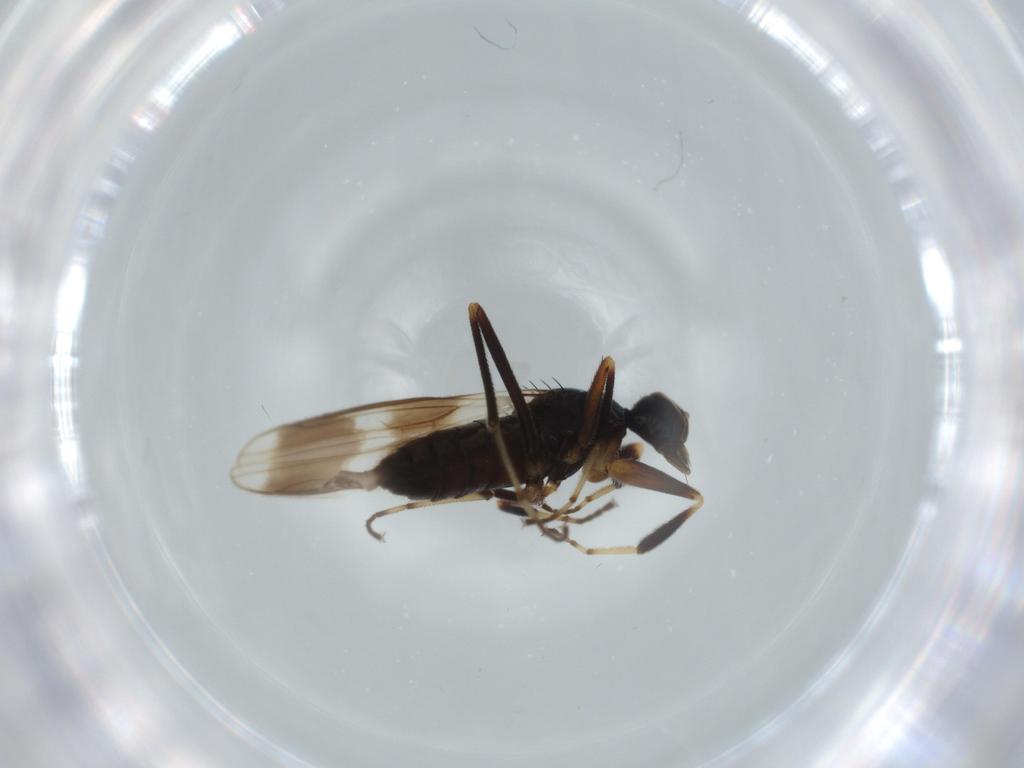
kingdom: Animalia
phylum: Arthropoda
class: Insecta
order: Diptera
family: Hybotidae
